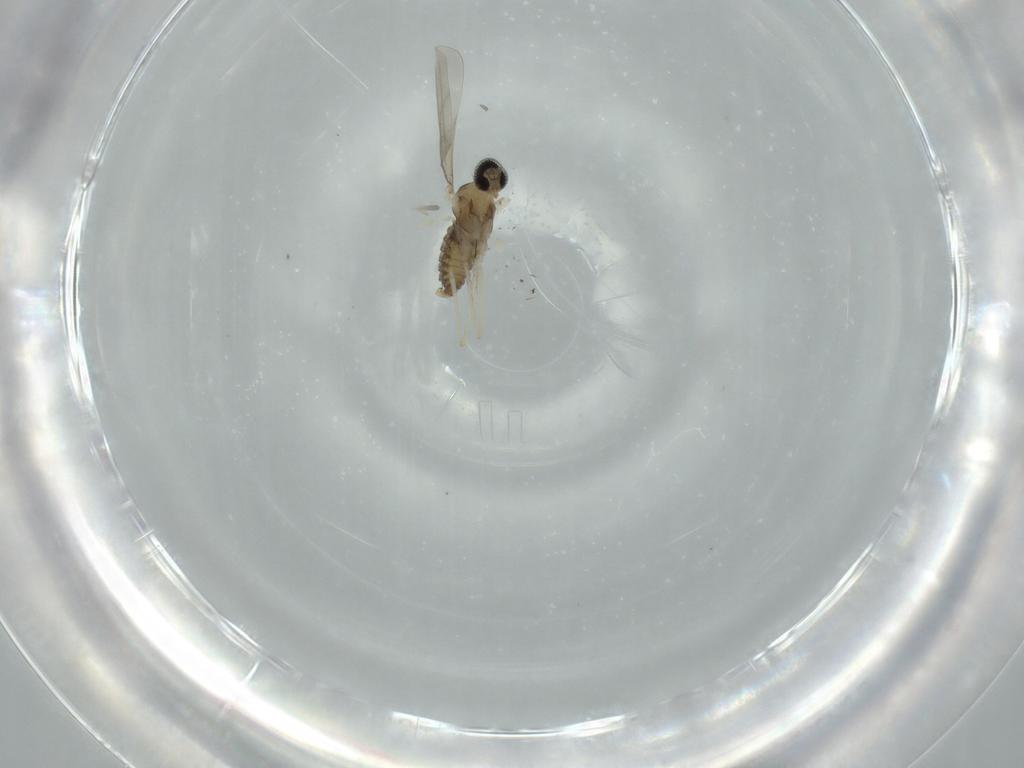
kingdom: Animalia
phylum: Arthropoda
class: Insecta
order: Diptera
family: Cecidomyiidae
